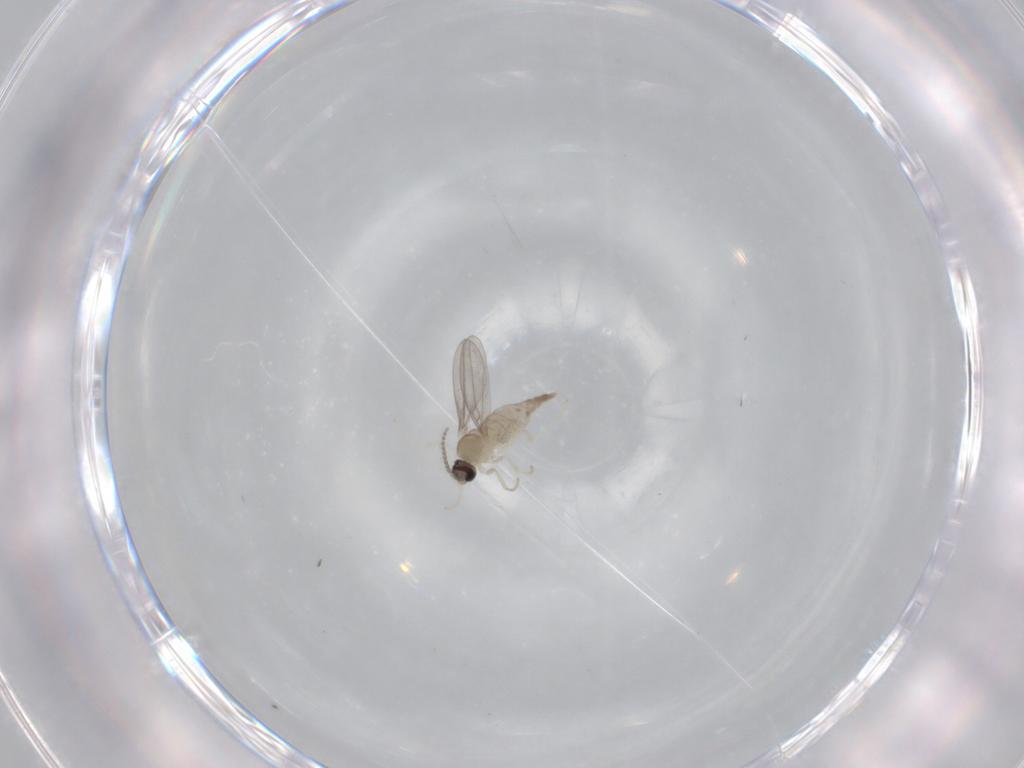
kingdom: Animalia
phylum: Arthropoda
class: Insecta
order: Diptera
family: Cecidomyiidae
